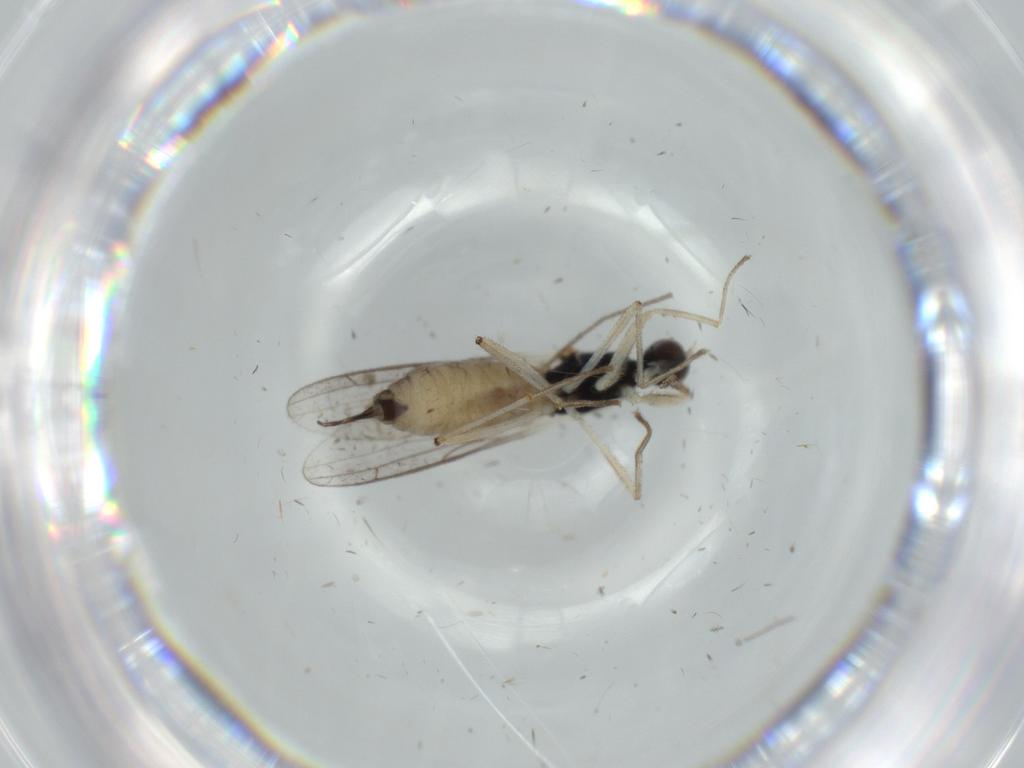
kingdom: Animalia
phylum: Arthropoda
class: Insecta
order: Diptera
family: Empididae
